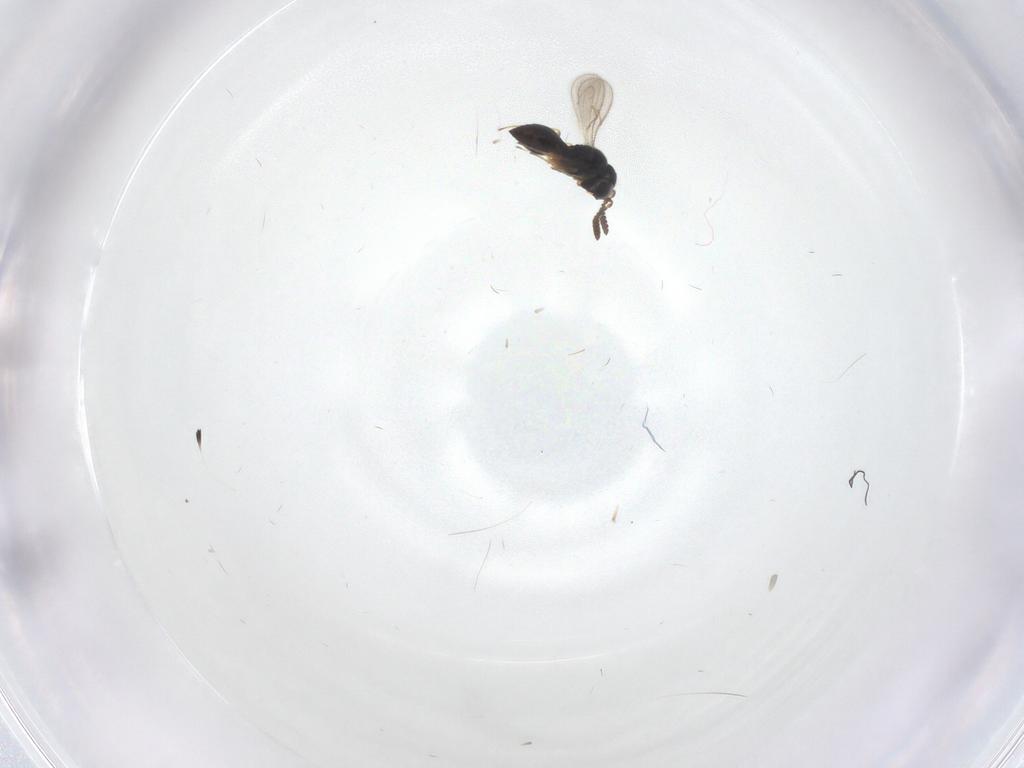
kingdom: Animalia
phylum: Arthropoda
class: Insecta
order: Hymenoptera
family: Scelionidae
